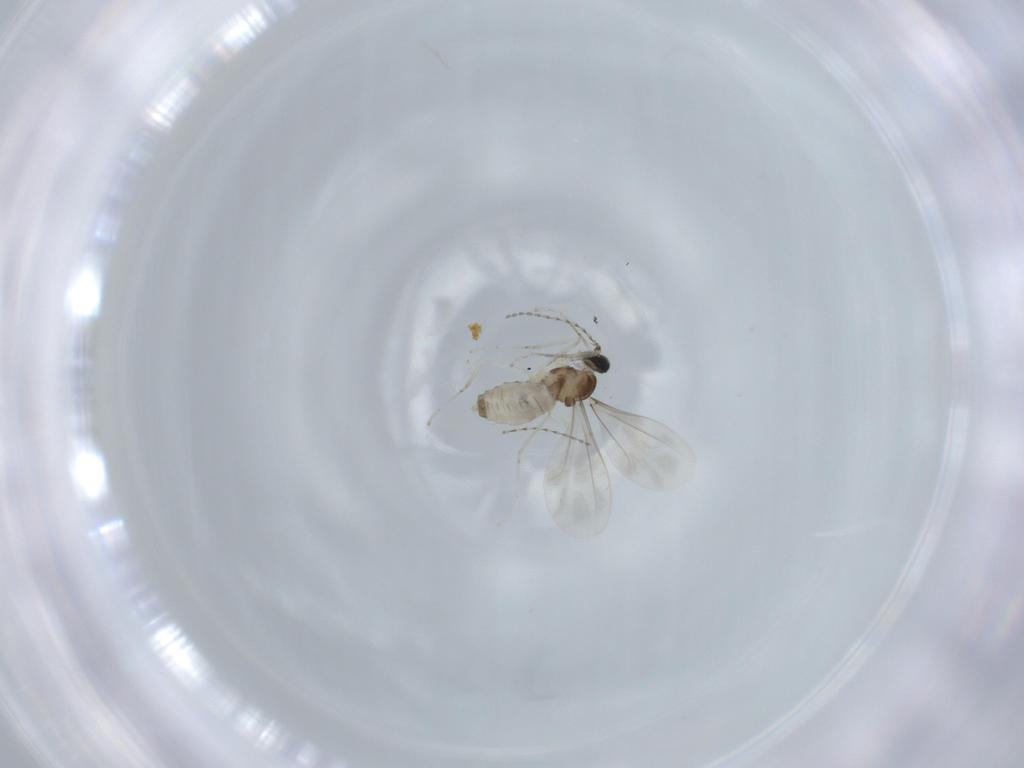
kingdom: Animalia
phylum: Arthropoda
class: Insecta
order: Diptera
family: Cecidomyiidae
